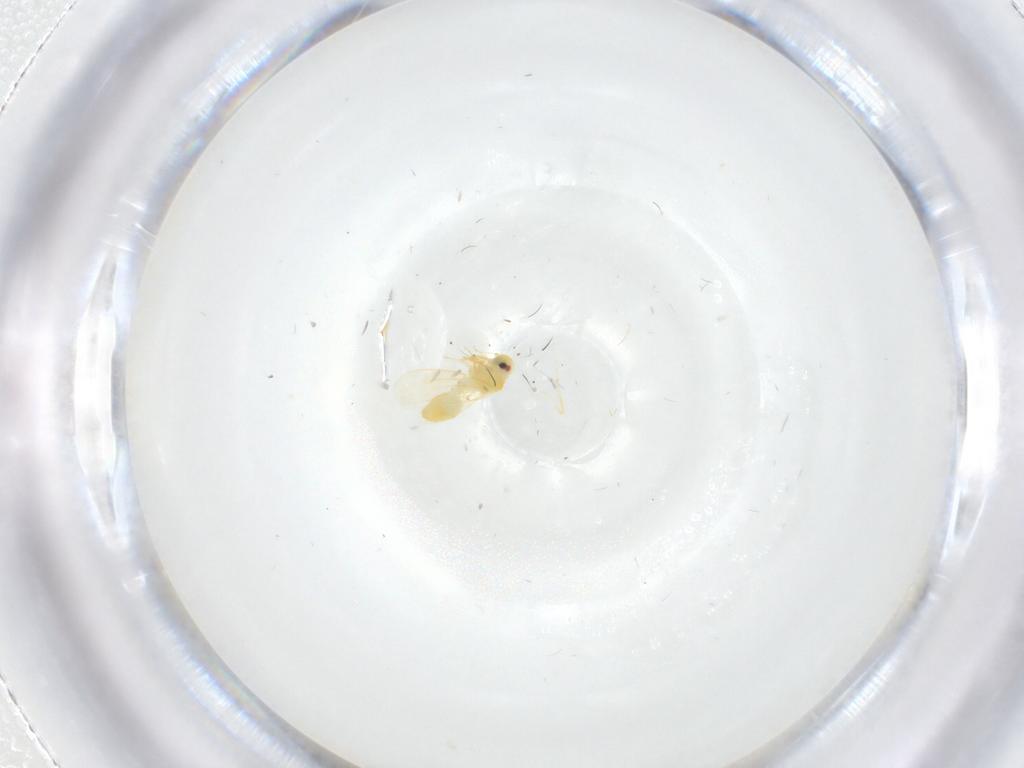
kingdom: Animalia
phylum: Arthropoda
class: Insecta
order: Hemiptera
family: Aleyrodidae
